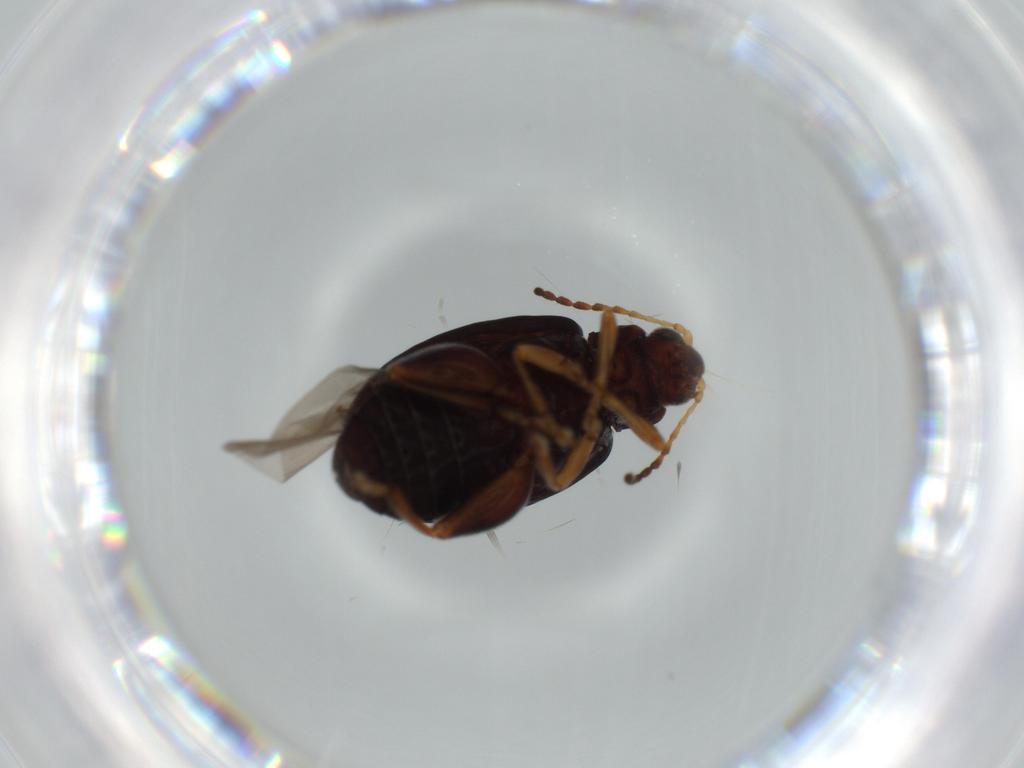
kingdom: Animalia
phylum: Arthropoda
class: Insecta
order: Coleoptera
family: Chrysomelidae
